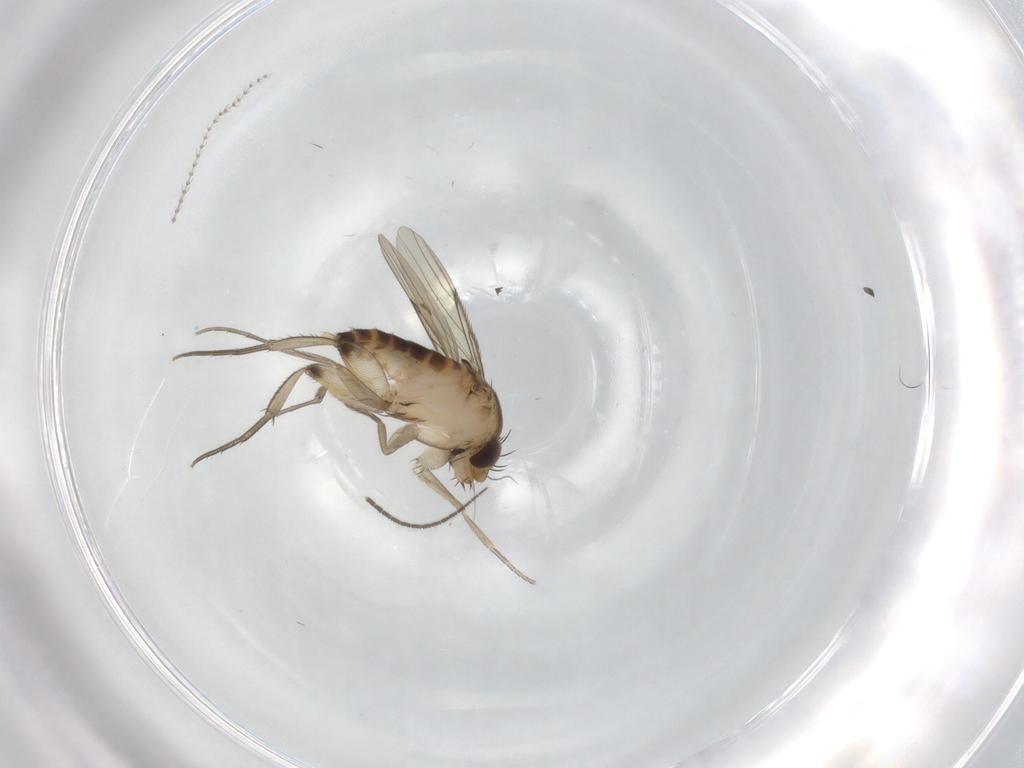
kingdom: Animalia
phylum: Arthropoda
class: Insecta
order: Diptera
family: Cecidomyiidae
